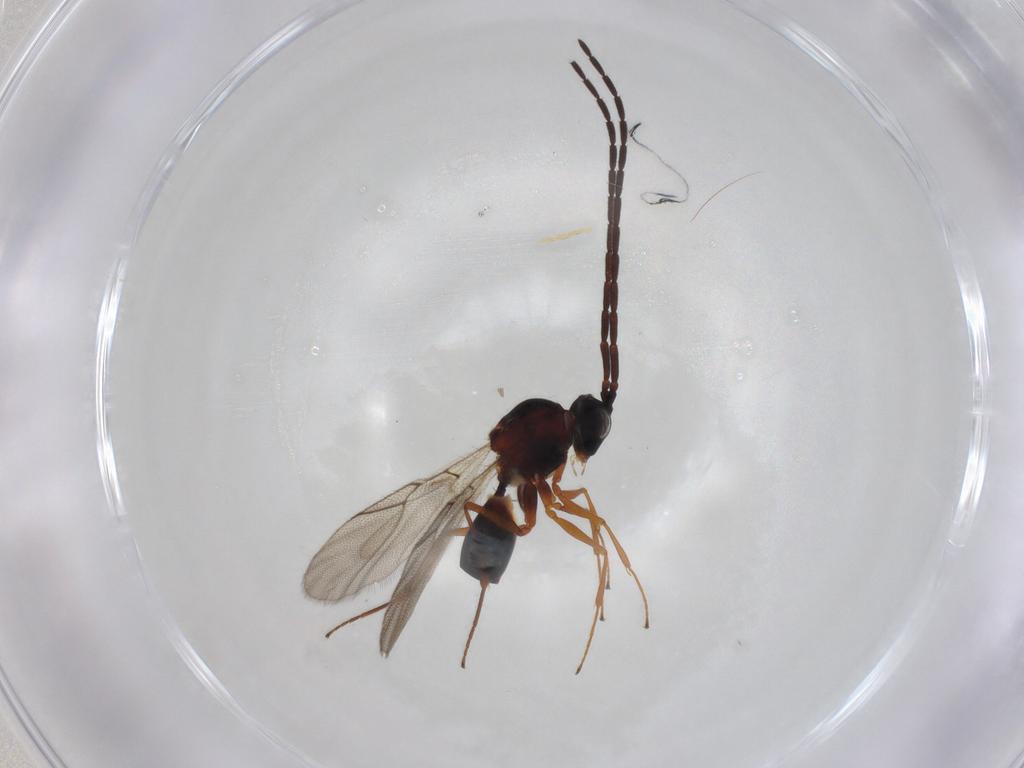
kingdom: Animalia
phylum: Arthropoda
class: Insecta
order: Hymenoptera
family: Figitidae
